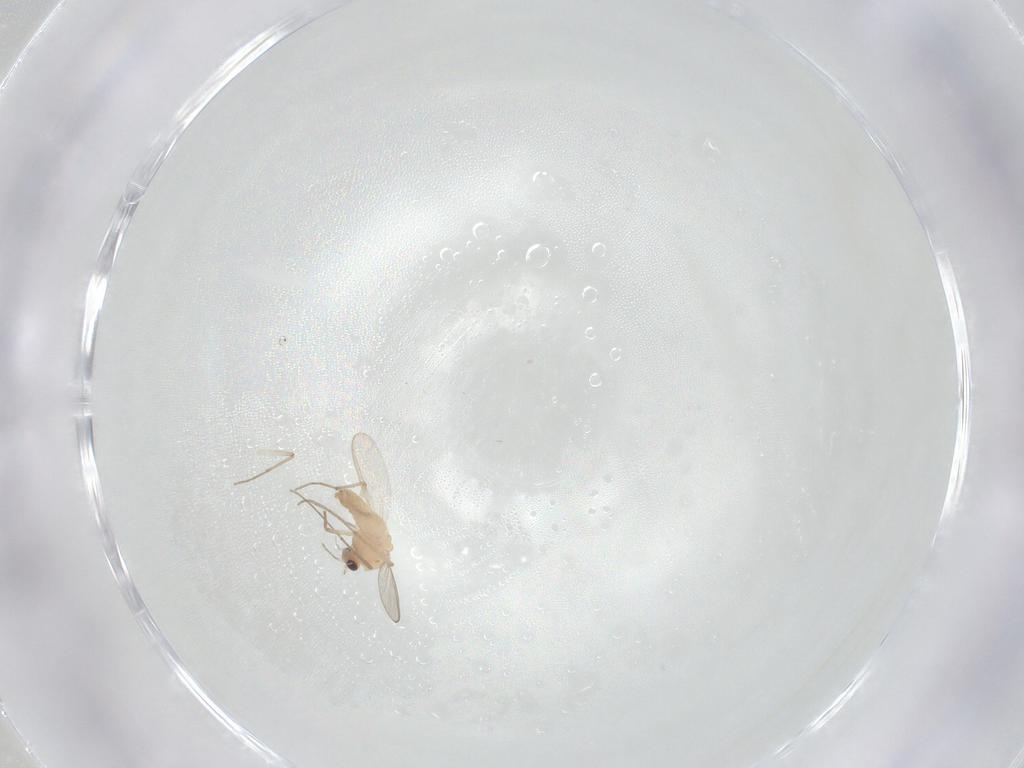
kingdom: Animalia
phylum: Arthropoda
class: Insecta
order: Diptera
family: Chironomidae
